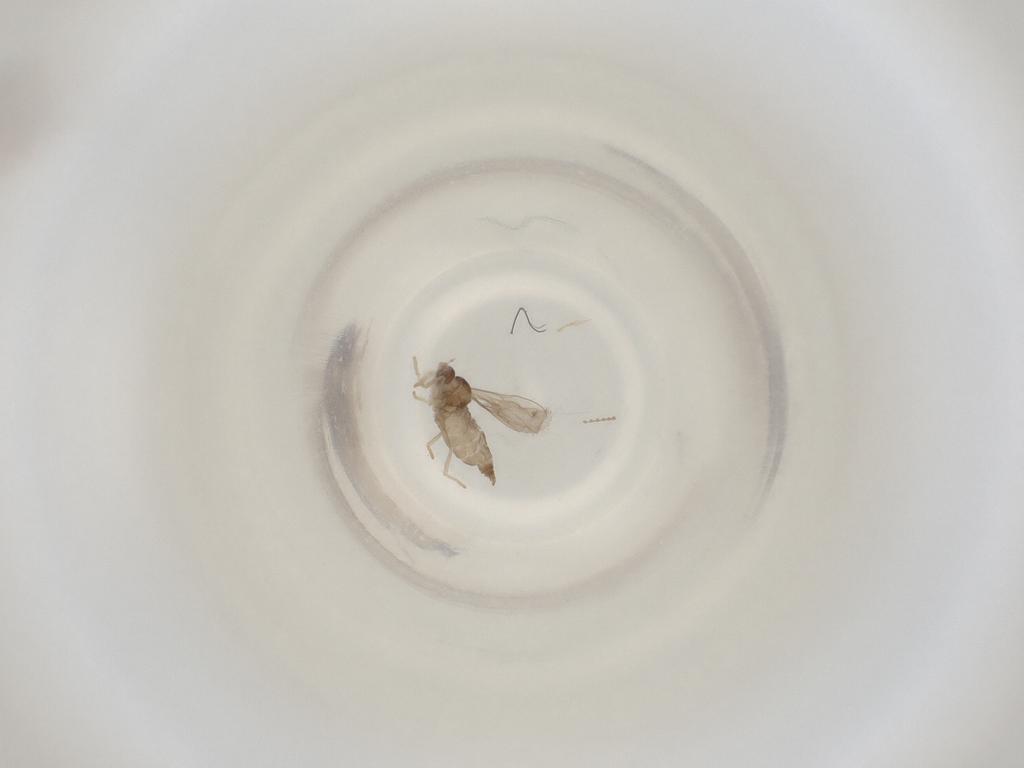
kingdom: Animalia
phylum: Arthropoda
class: Insecta
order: Diptera
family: Cecidomyiidae
